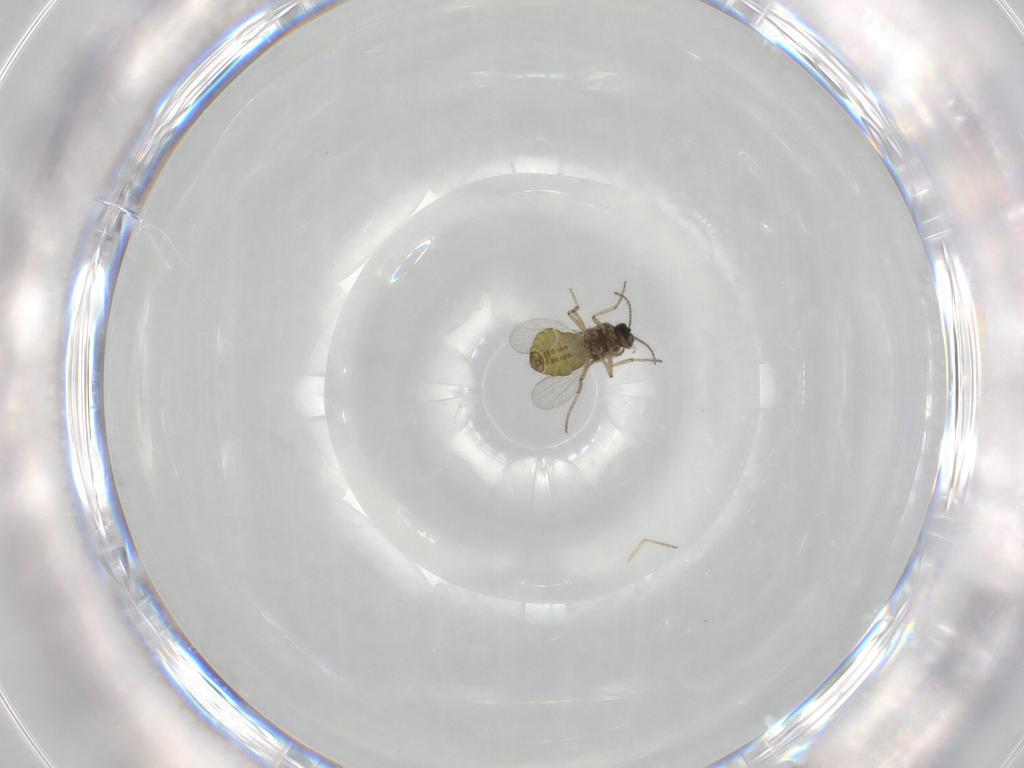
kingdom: Animalia
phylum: Arthropoda
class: Insecta
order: Diptera
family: Ceratopogonidae
